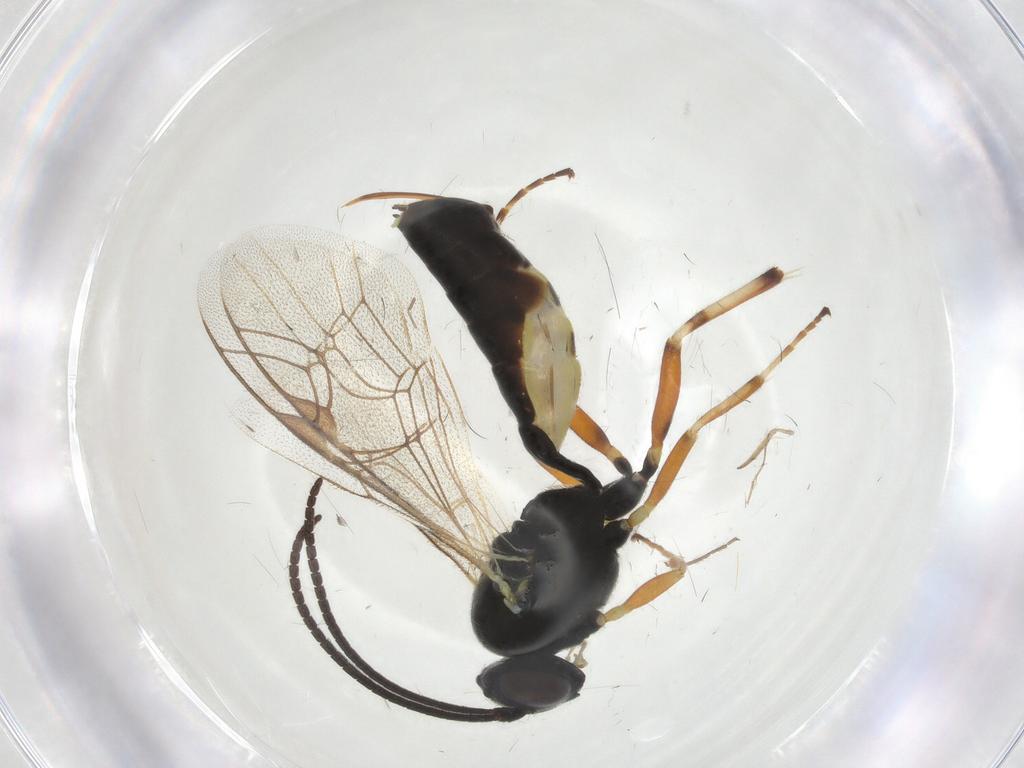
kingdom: Animalia
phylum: Arthropoda
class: Insecta
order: Hymenoptera
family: Ichneumonidae
